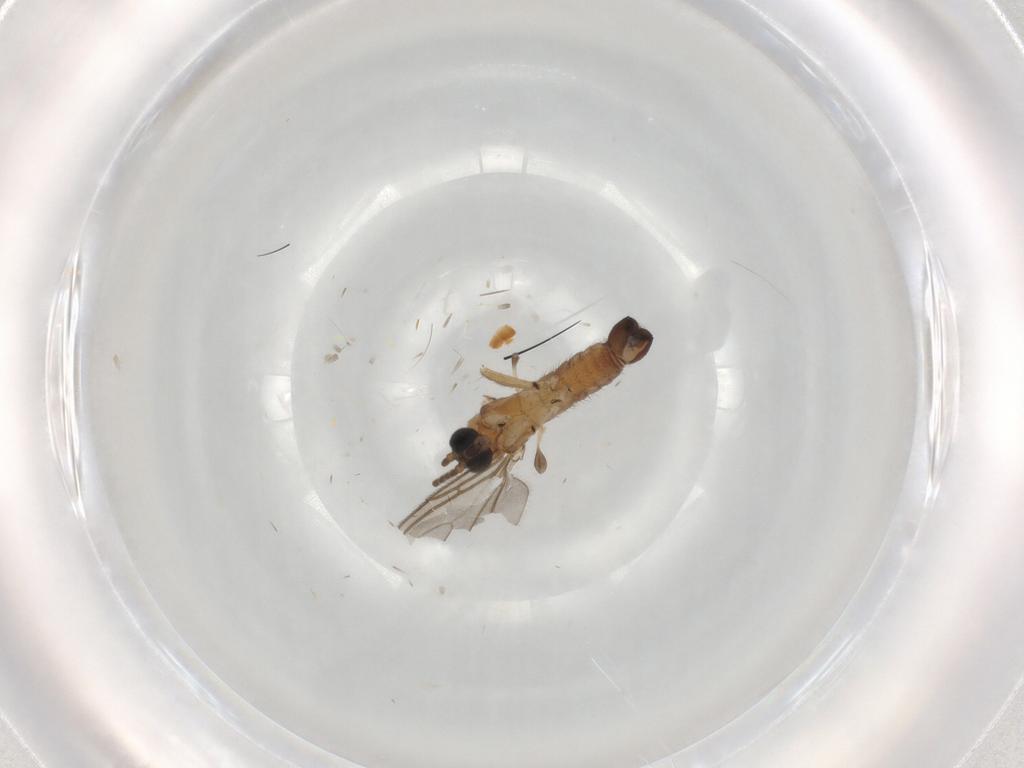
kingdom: Animalia
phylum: Arthropoda
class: Insecta
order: Diptera
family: Sciaridae
